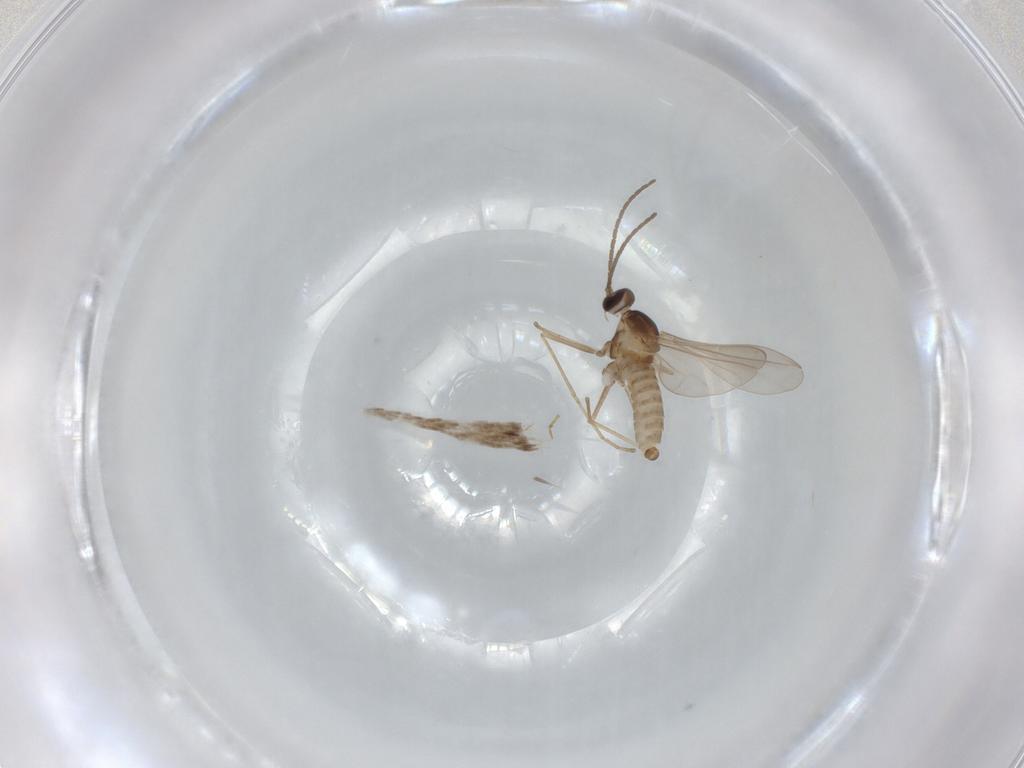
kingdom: Animalia
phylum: Arthropoda
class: Insecta
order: Diptera
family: Cecidomyiidae
